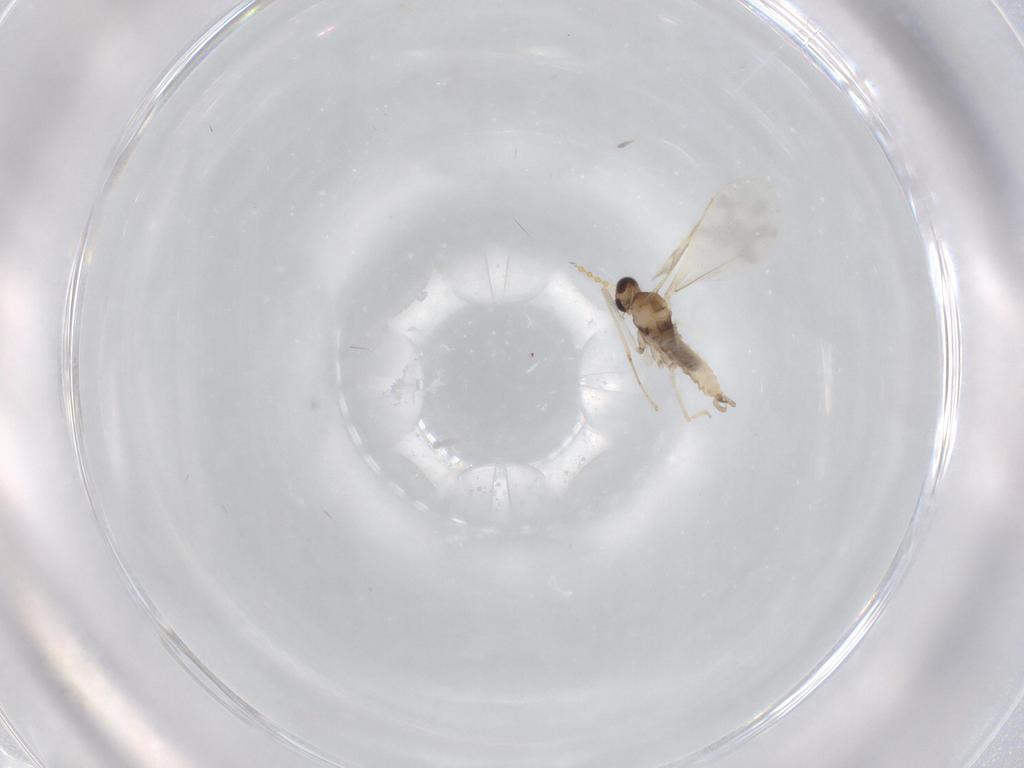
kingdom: Animalia
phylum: Arthropoda
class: Insecta
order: Diptera
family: Cecidomyiidae
